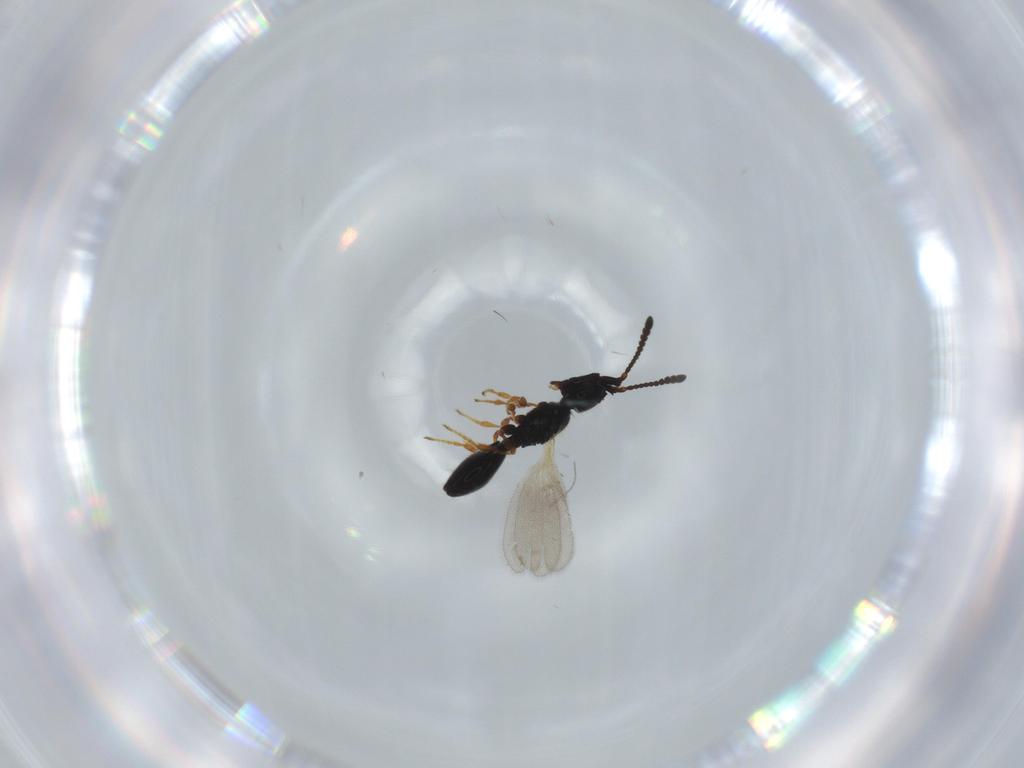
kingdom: Animalia
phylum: Arthropoda
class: Insecta
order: Hymenoptera
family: Diapriidae
